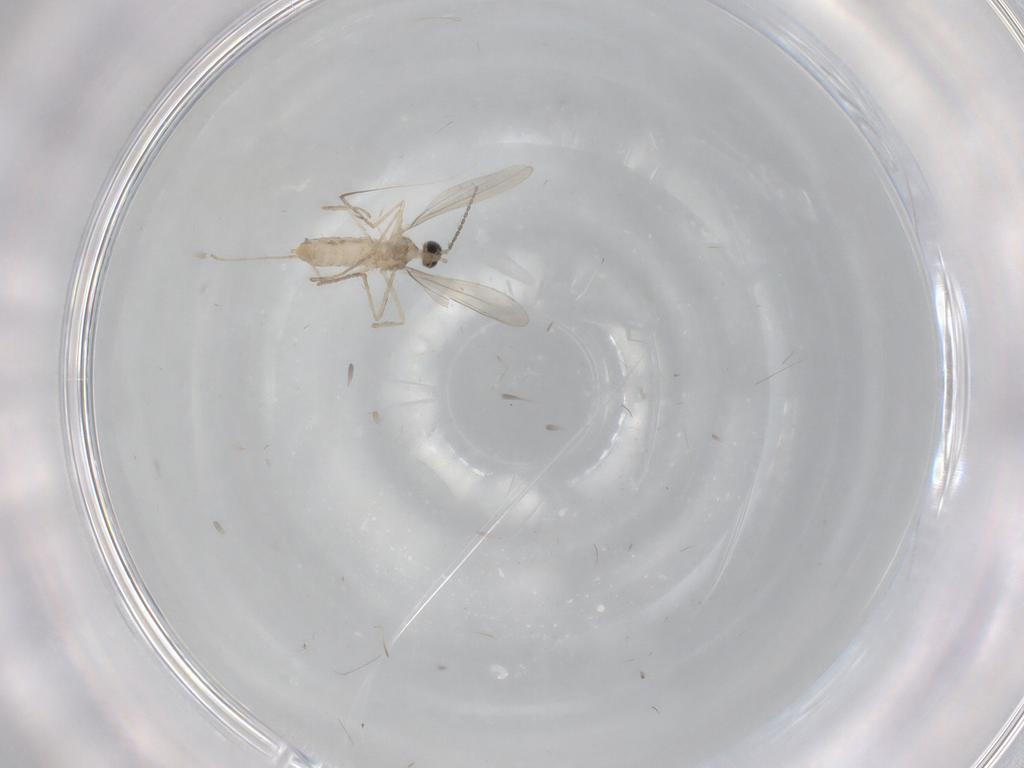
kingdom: Animalia
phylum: Arthropoda
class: Insecta
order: Diptera
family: Cecidomyiidae
